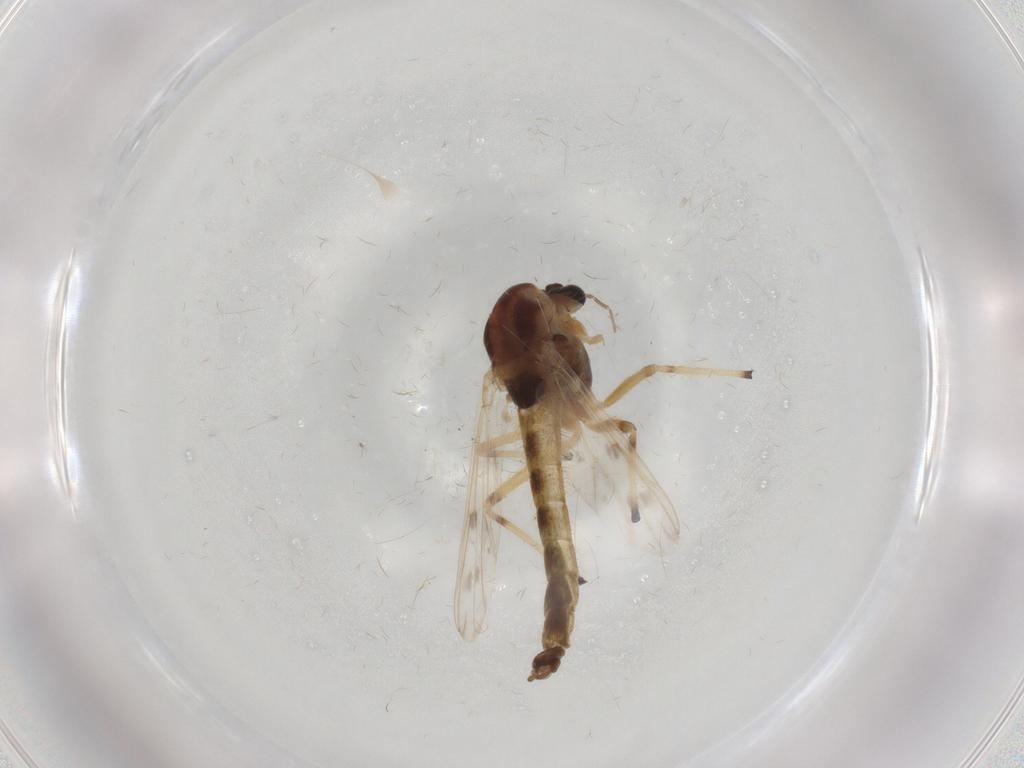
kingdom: Animalia
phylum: Arthropoda
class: Insecta
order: Diptera
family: Chironomidae
